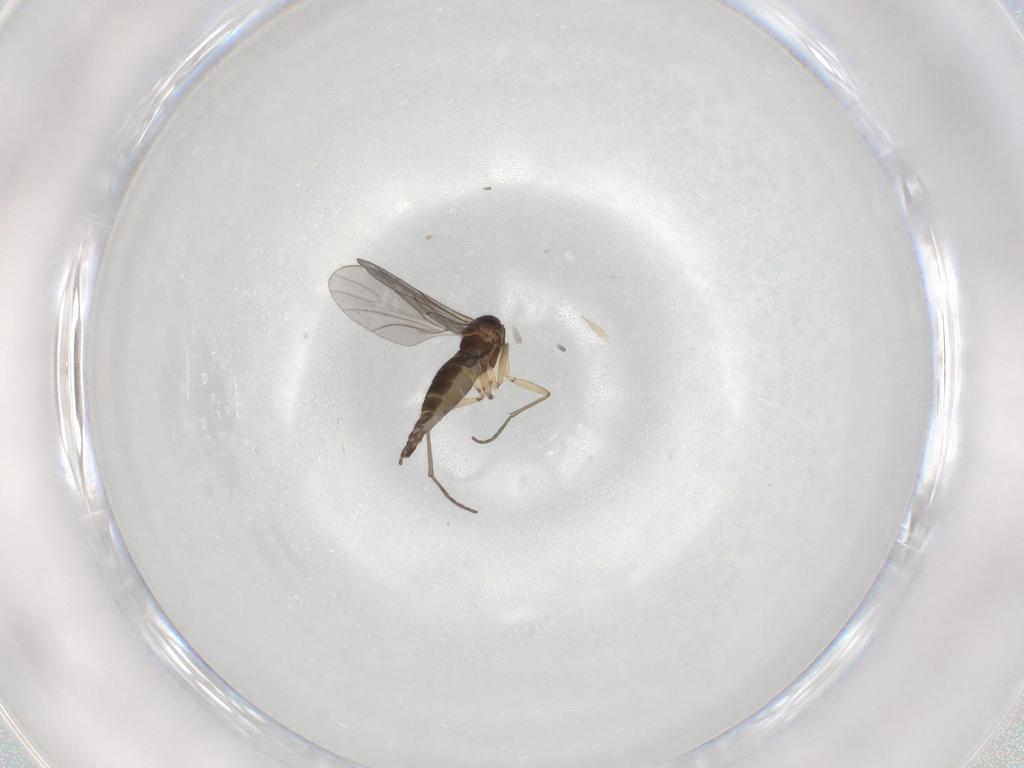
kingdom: Animalia
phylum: Arthropoda
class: Insecta
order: Diptera
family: Sciaridae
